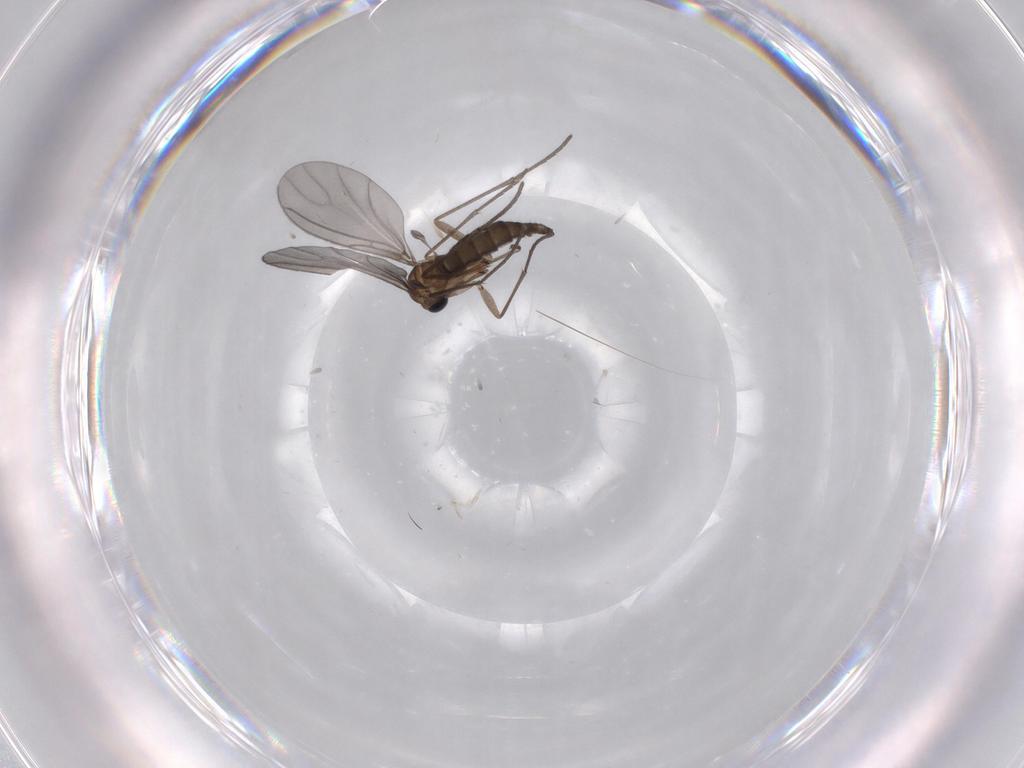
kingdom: Animalia
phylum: Arthropoda
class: Insecta
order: Diptera
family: Sciaridae
